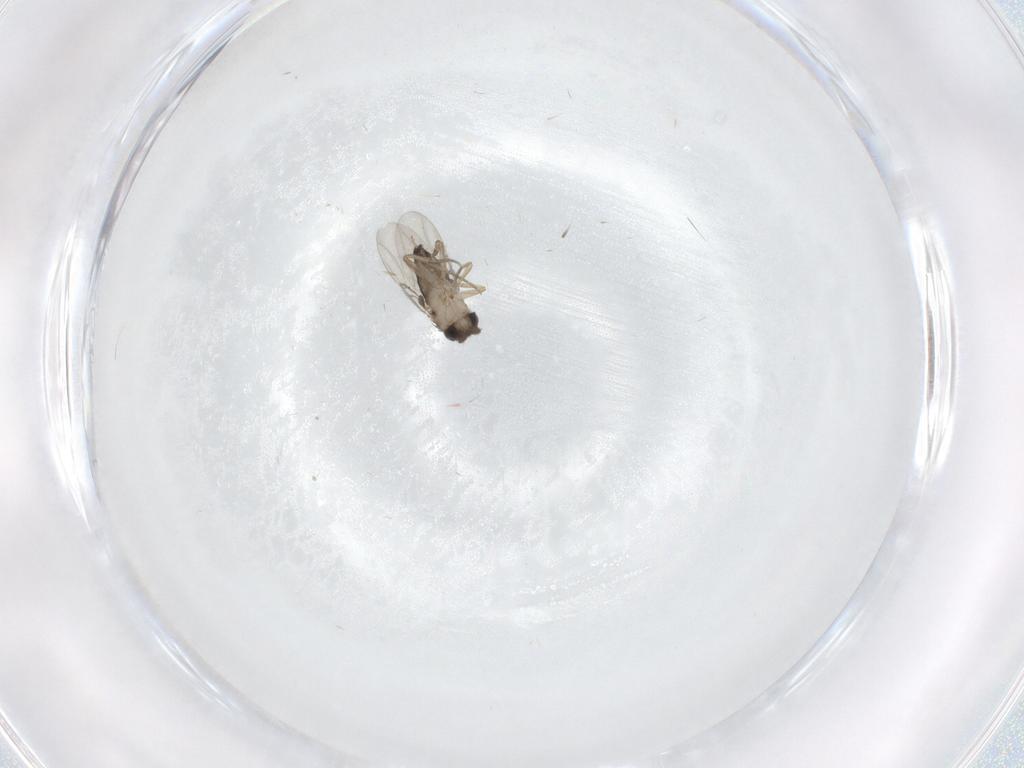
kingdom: Animalia
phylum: Arthropoda
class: Insecta
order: Diptera
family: Phoridae
